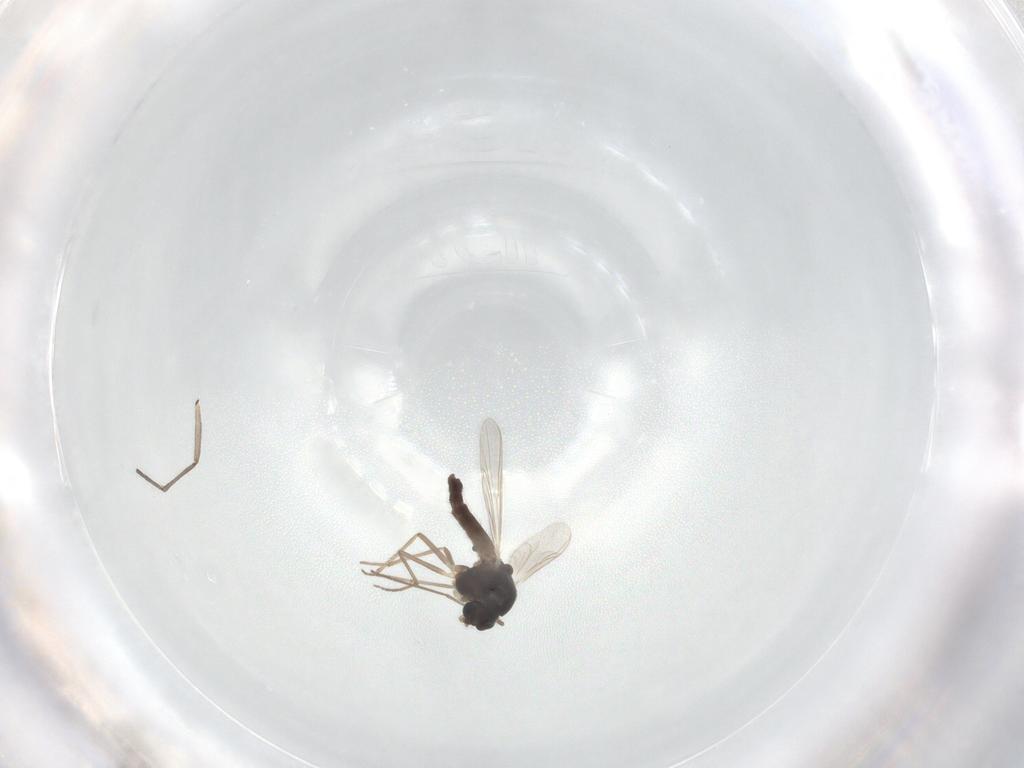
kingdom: Animalia
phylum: Arthropoda
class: Insecta
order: Diptera
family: Chironomidae
